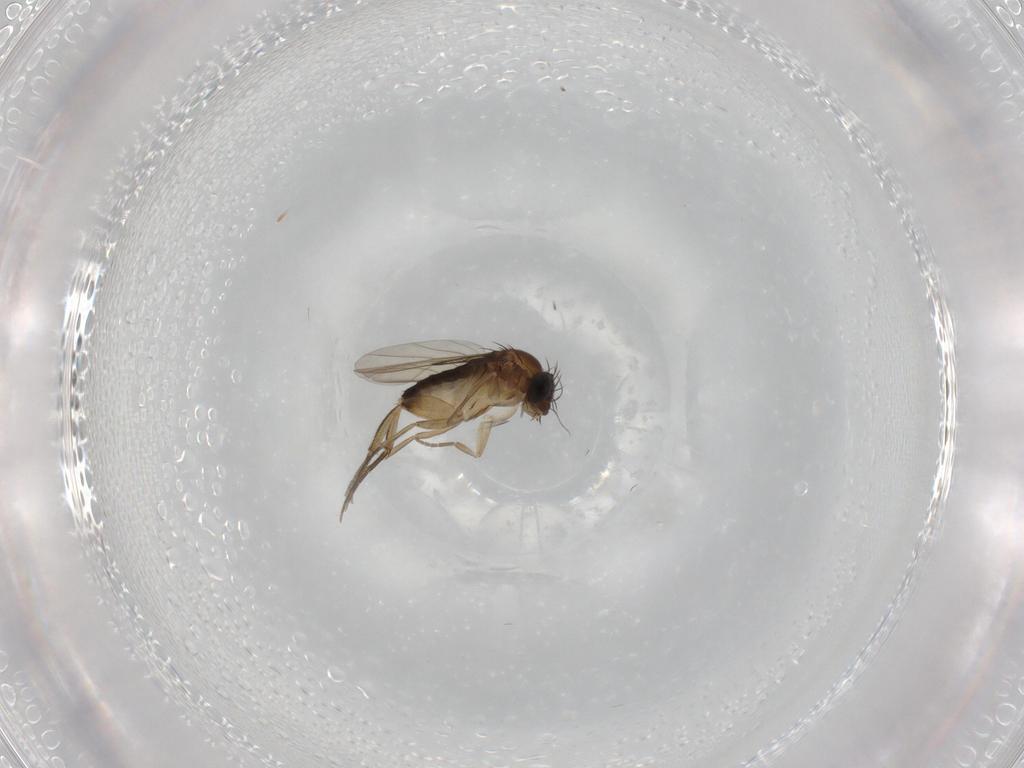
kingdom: Animalia
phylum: Arthropoda
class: Insecta
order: Diptera
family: Phoridae
